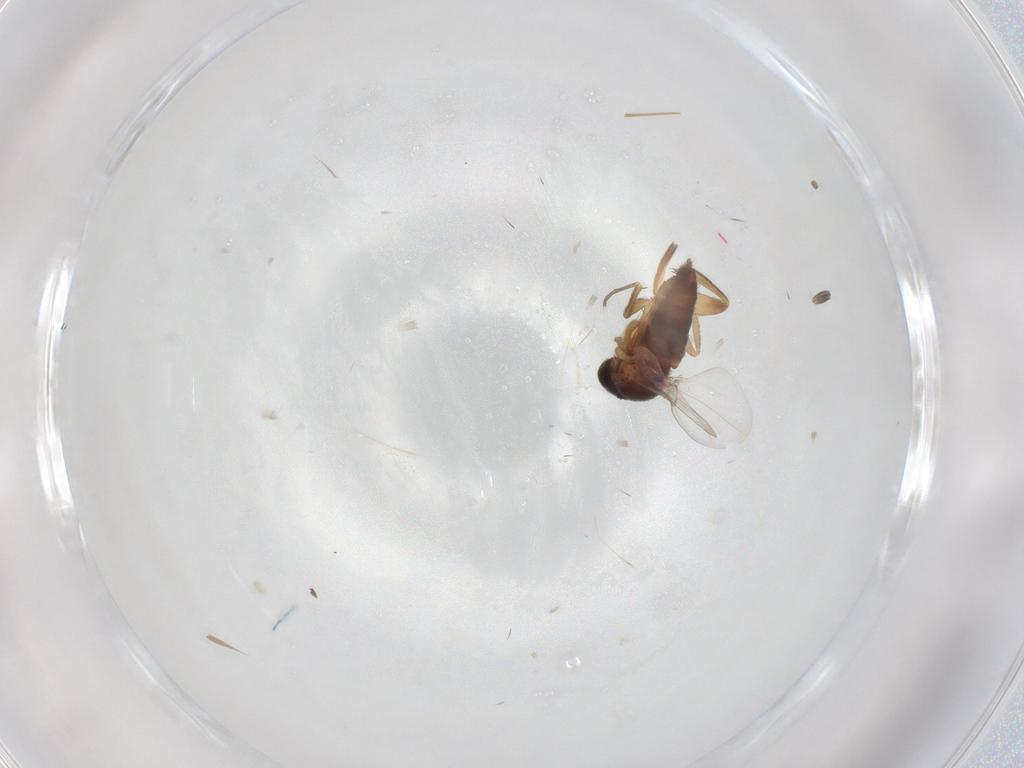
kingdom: Animalia
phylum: Arthropoda
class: Insecta
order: Diptera
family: Cecidomyiidae
